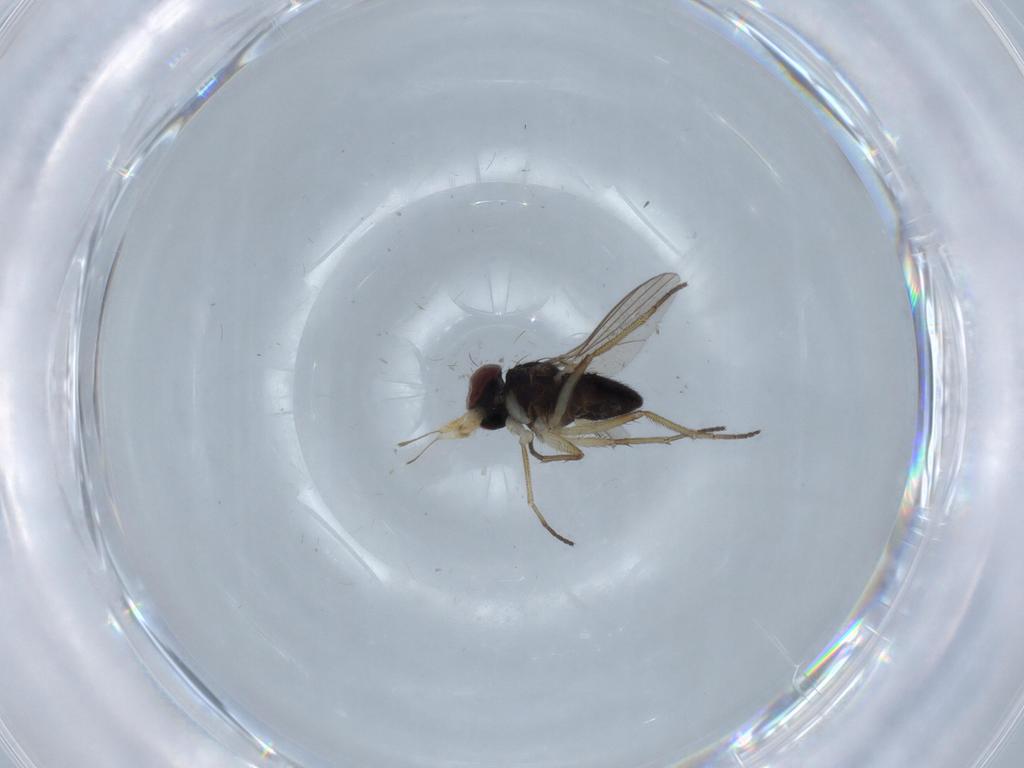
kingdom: Animalia
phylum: Arthropoda
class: Insecta
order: Diptera
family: Dolichopodidae
